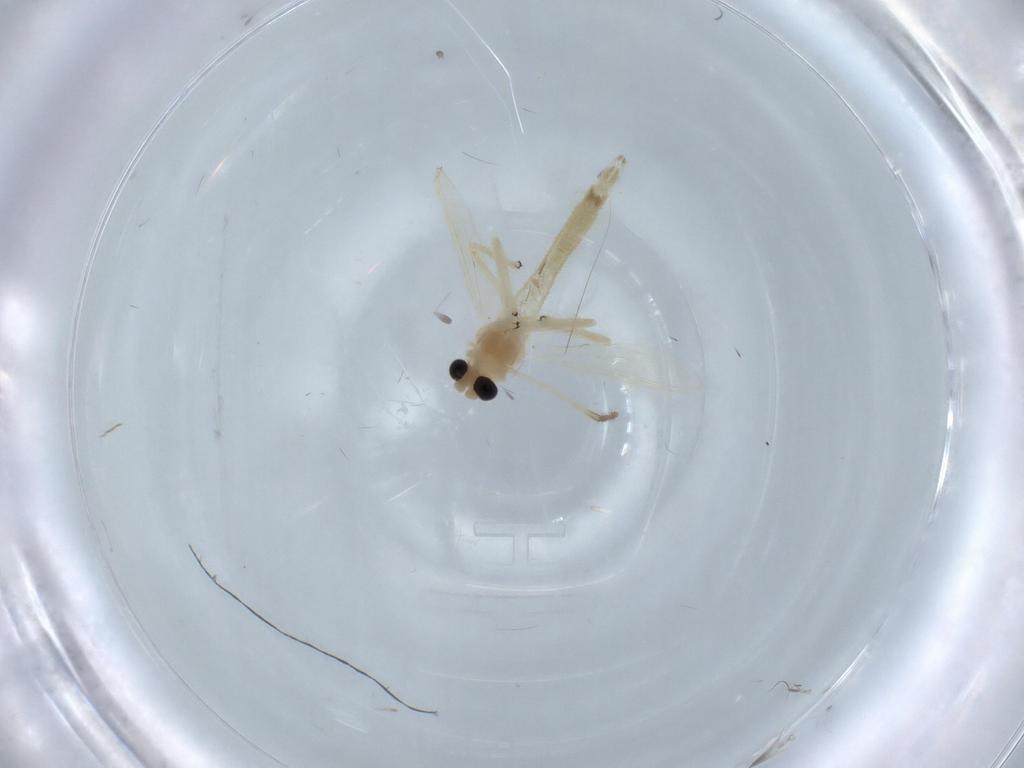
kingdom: Animalia
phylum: Arthropoda
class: Insecta
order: Diptera
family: Chironomidae
